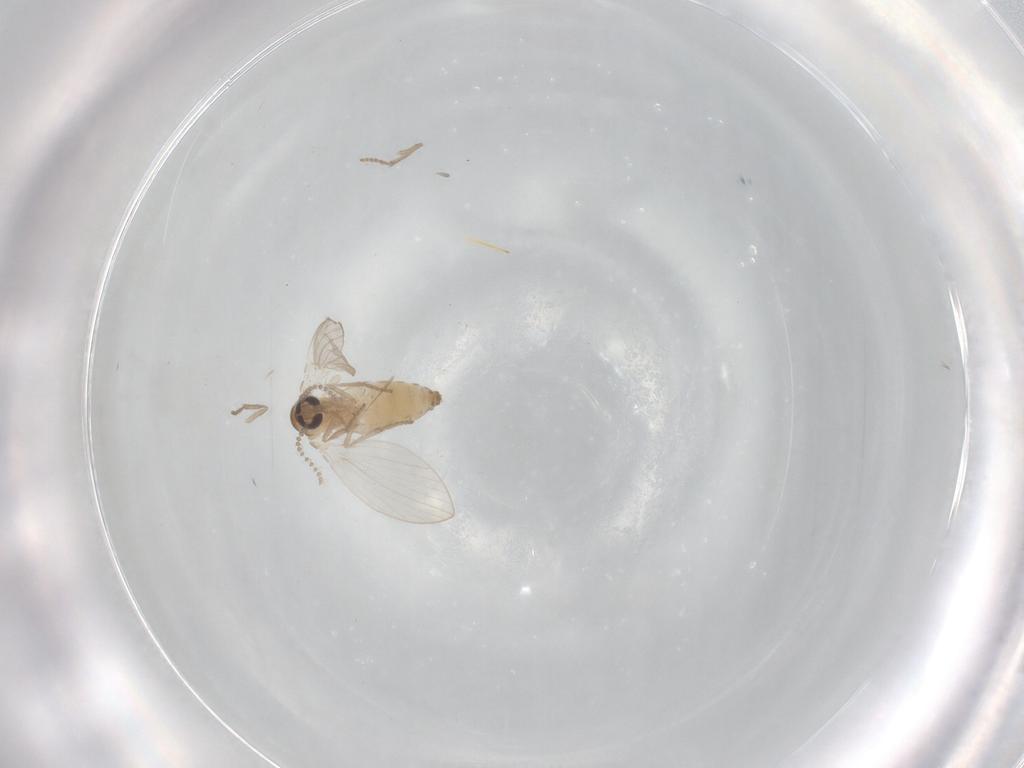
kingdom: Animalia
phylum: Arthropoda
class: Insecta
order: Diptera
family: Psychodidae
